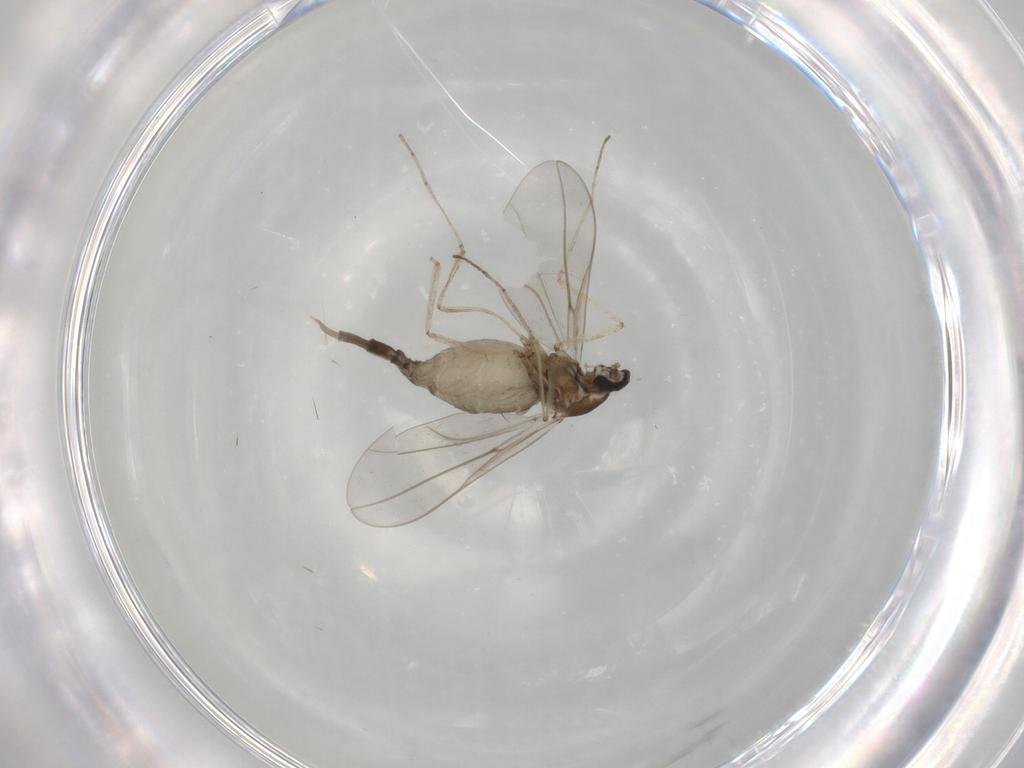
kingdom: Animalia
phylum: Arthropoda
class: Insecta
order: Diptera
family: Cecidomyiidae
